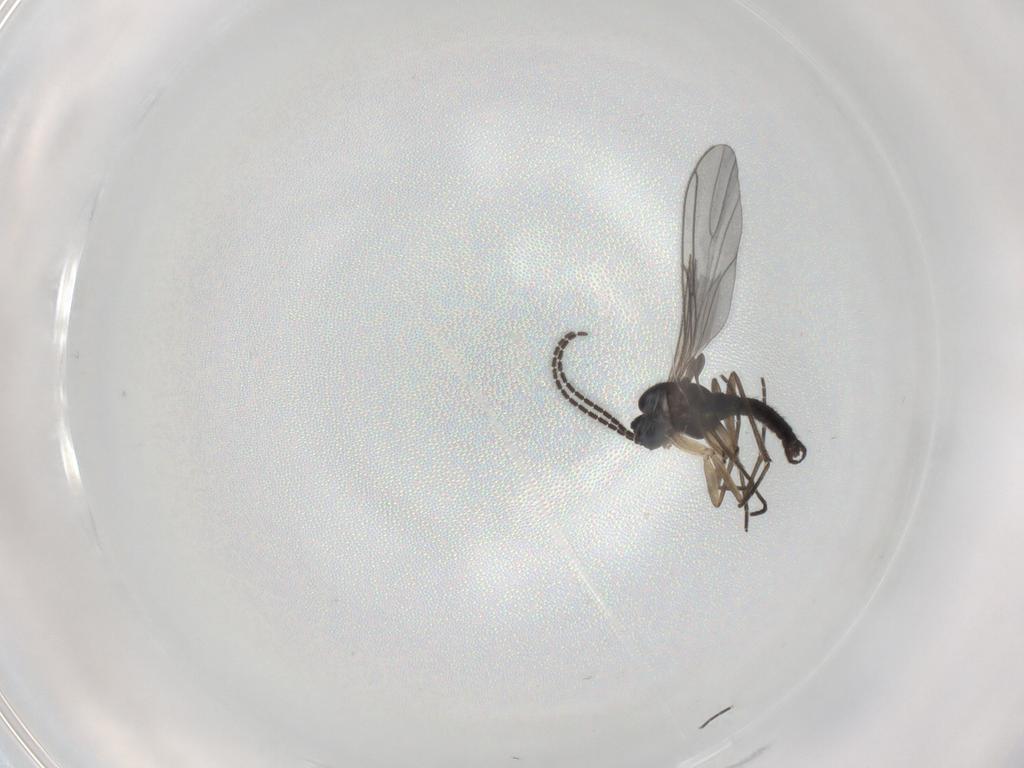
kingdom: Animalia
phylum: Arthropoda
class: Insecta
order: Diptera
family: Sciaridae
